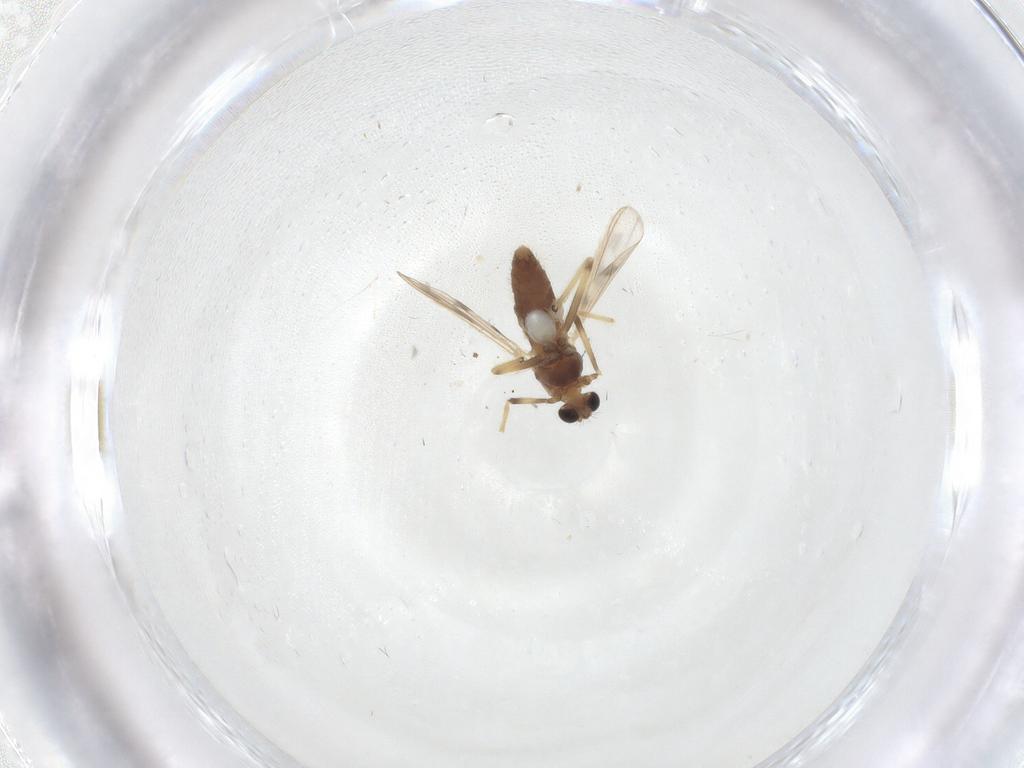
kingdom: Animalia
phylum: Arthropoda
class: Insecta
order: Diptera
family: Chironomidae
